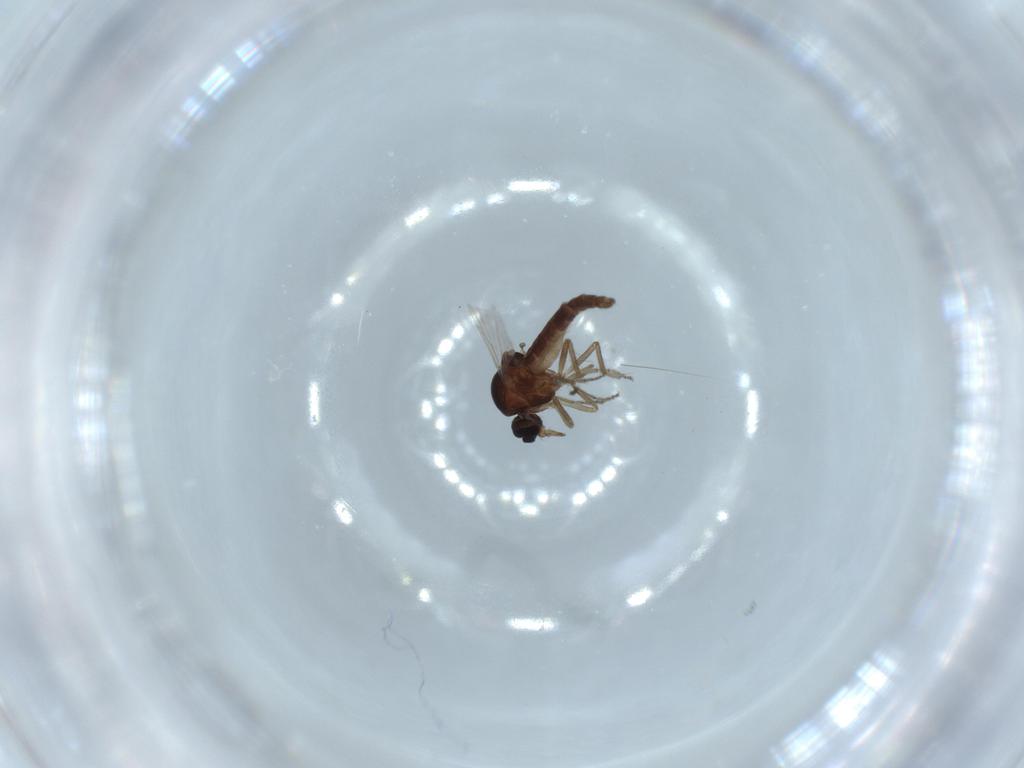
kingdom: Animalia
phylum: Arthropoda
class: Insecta
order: Diptera
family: Ceratopogonidae
